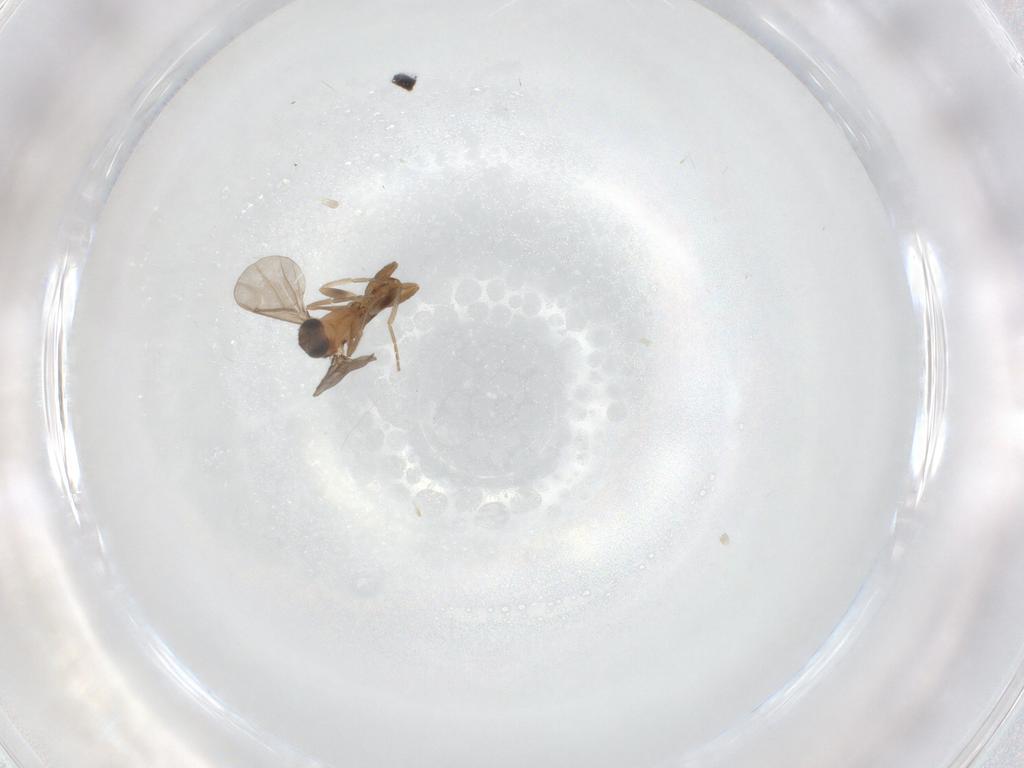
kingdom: Animalia
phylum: Arthropoda
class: Insecta
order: Diptera
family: Phoridae
